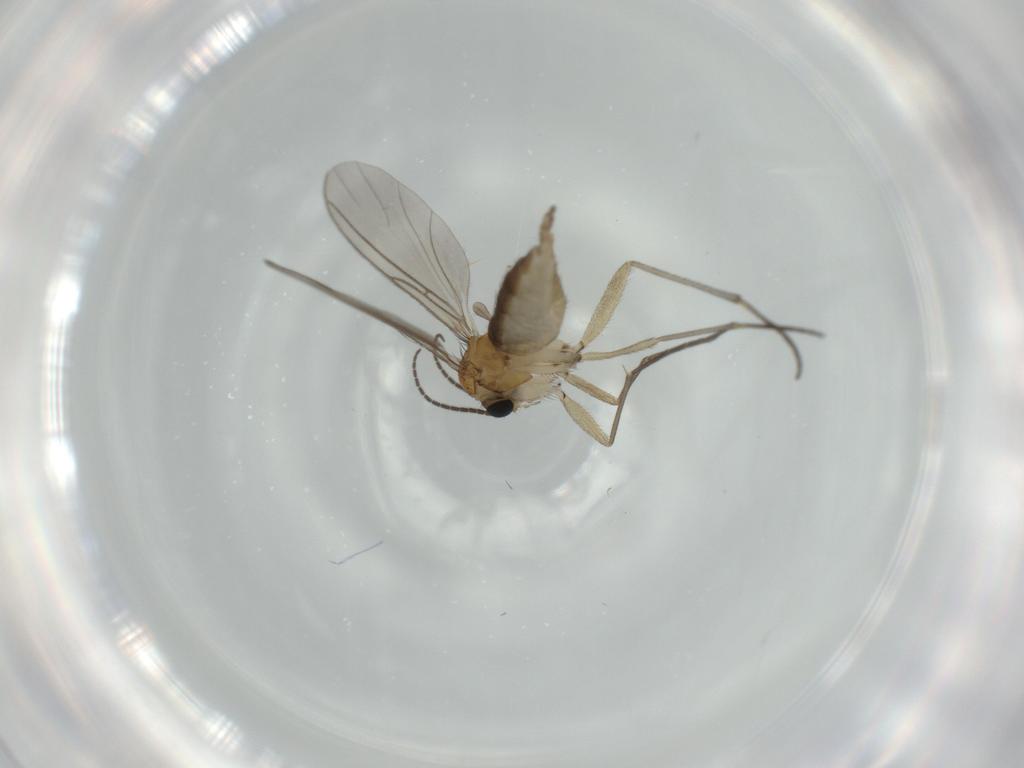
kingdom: Animalia
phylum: Arthropoda
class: Insecta
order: Diptera
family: Sciaridae
